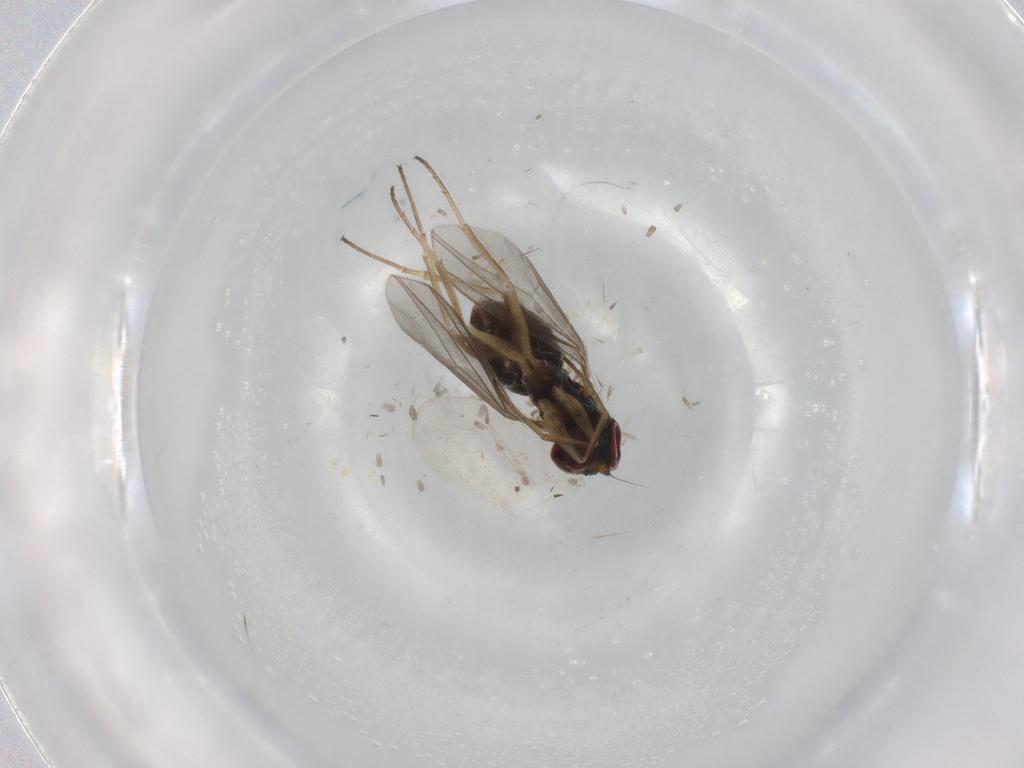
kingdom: Animalia
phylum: Arthropoda
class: Insecta
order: Diptera
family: Dolichopodidae
